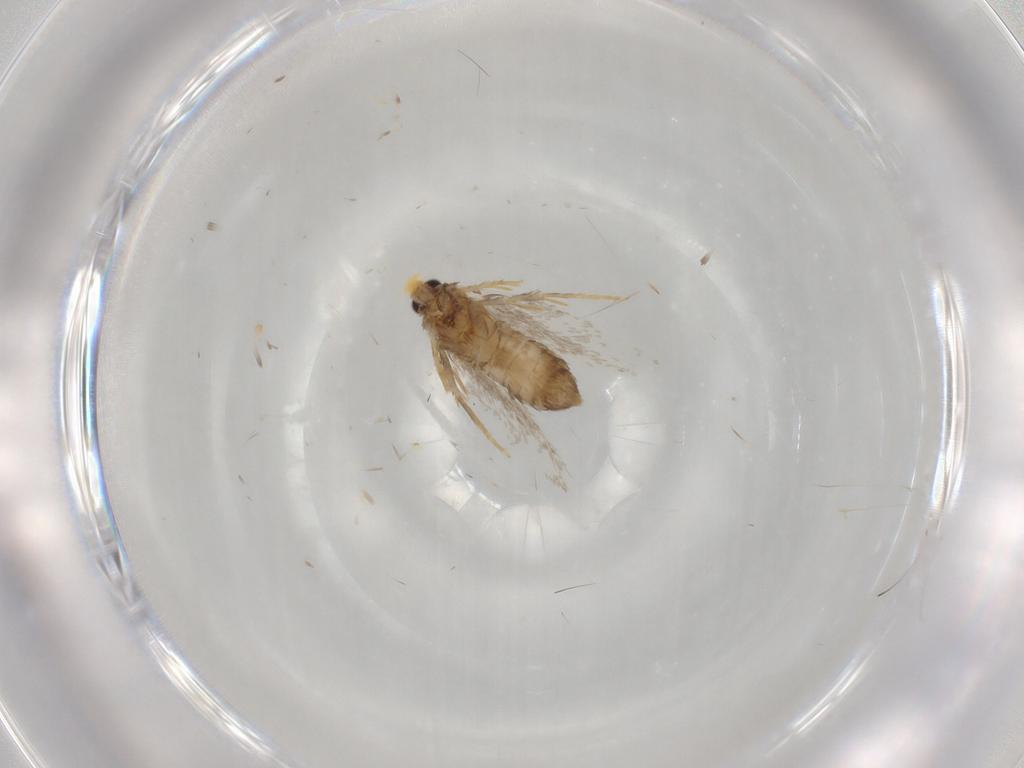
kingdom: Animalia
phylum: Arthropoda
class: Insecta
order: Lepidoptera
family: Nepticulidae
